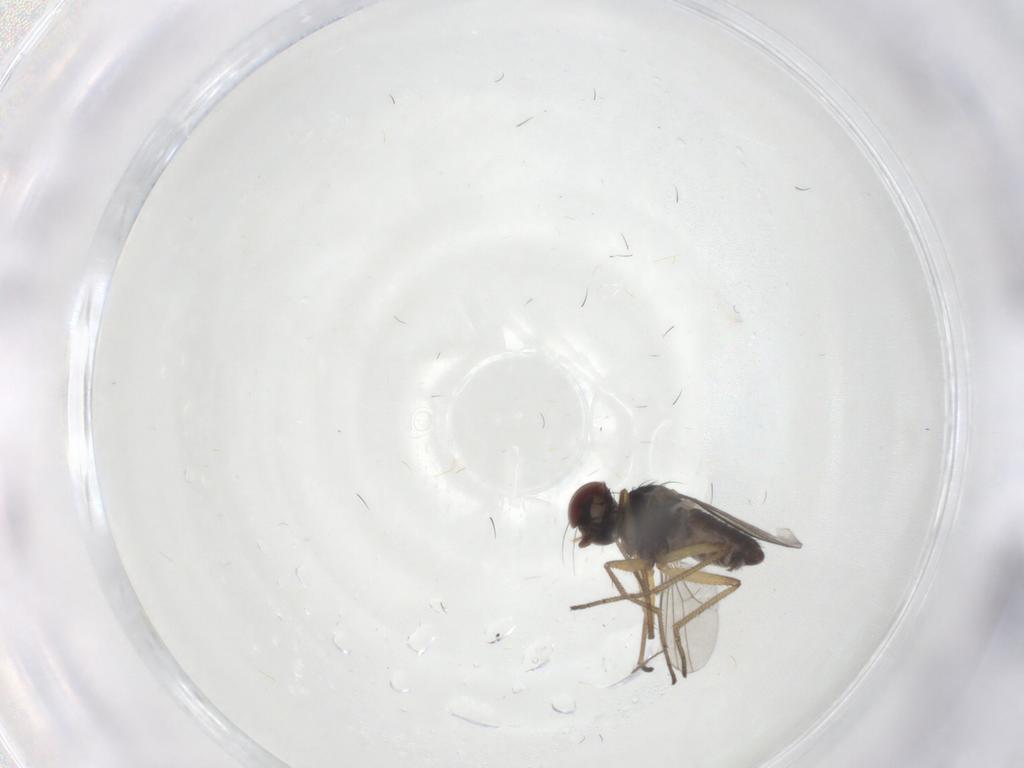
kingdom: Animalia
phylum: Arthropoda
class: Insecta
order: Diptera
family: Dolichopodidae
